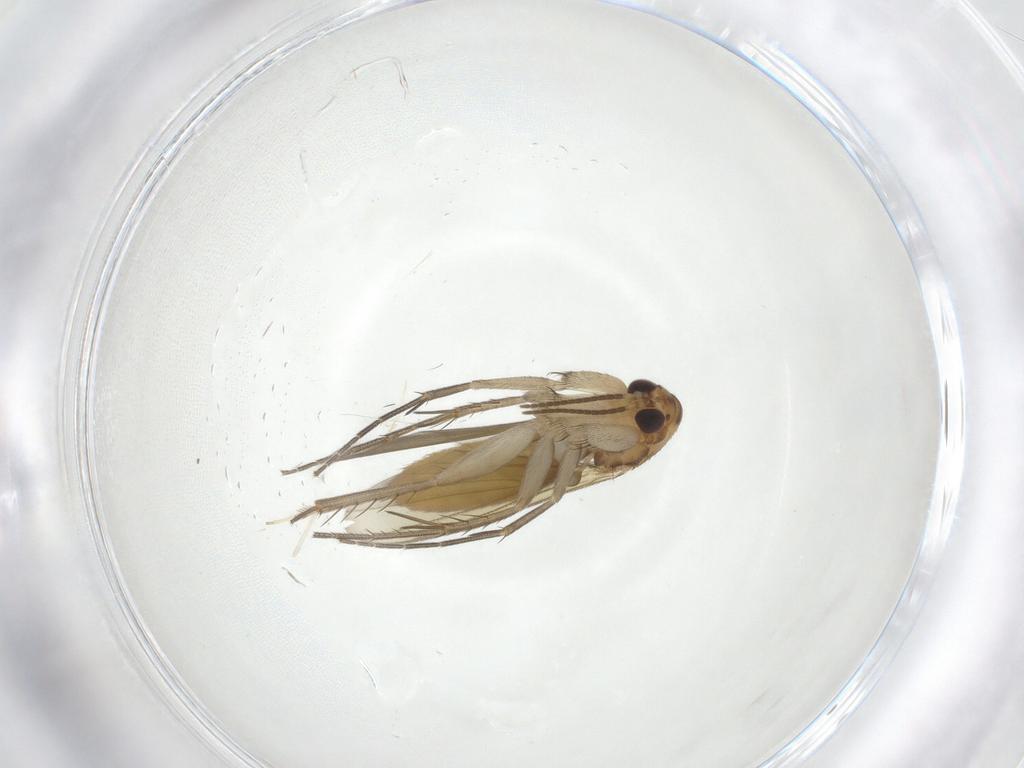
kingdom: Animalia
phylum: Arthropoda
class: Insecta
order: Diptera
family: Mycetophilidae
